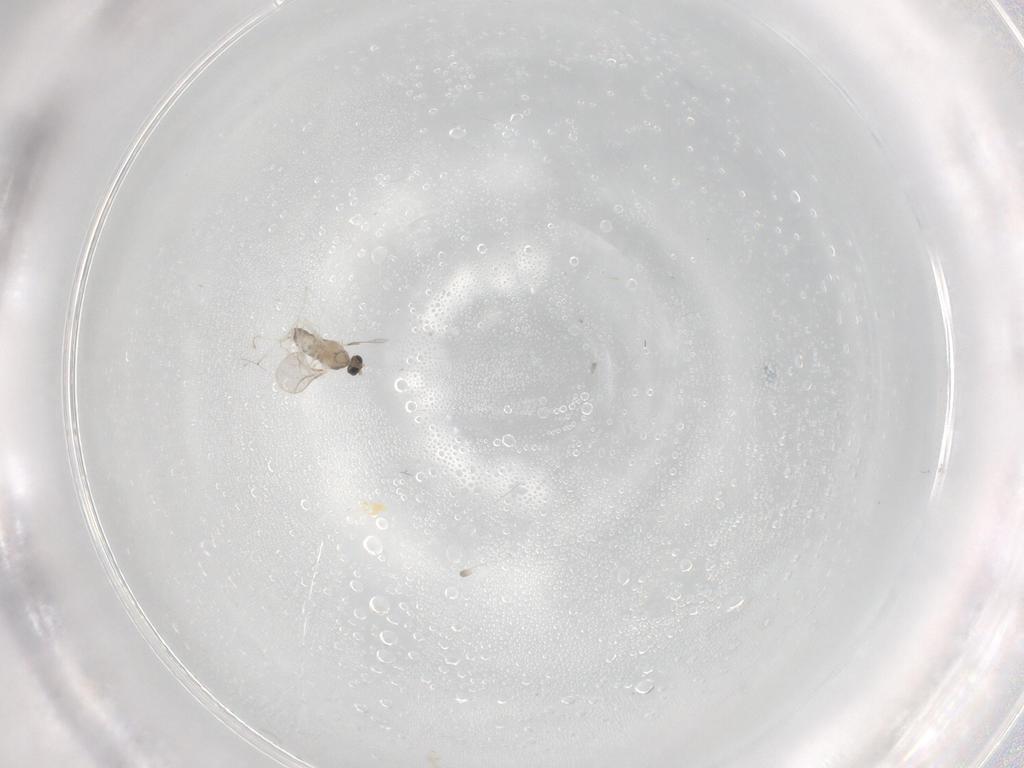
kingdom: Animalia
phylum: Arthropoda
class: Insecta
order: Diptera
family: Cecidomyiidae
